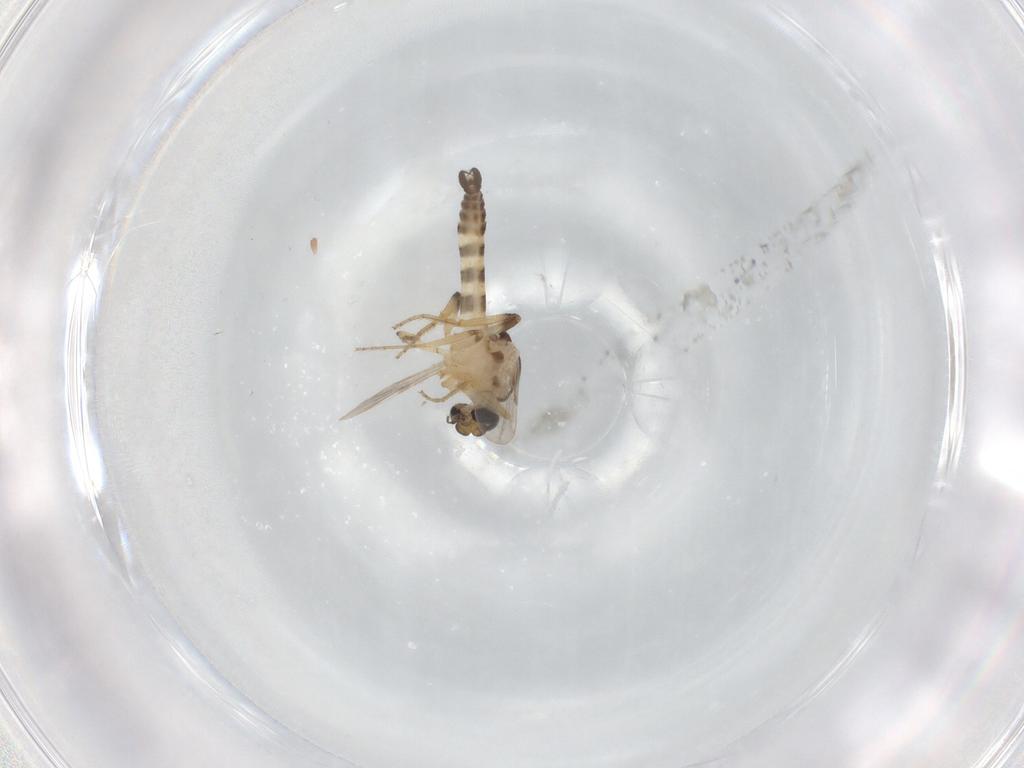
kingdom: Animalia
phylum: Arthropoda
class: Insecta
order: Diptera
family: Ceratopogonidae
